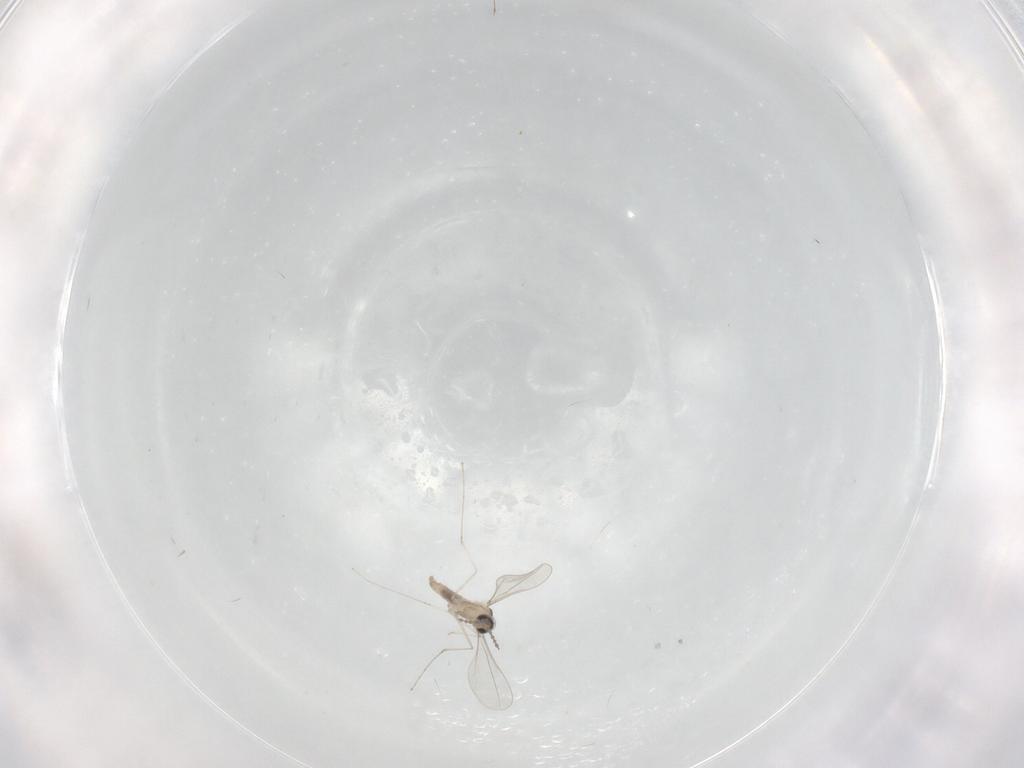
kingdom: Animalia
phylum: Arthropoda
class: Insecta
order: Diptera
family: Cecidomyiidae
